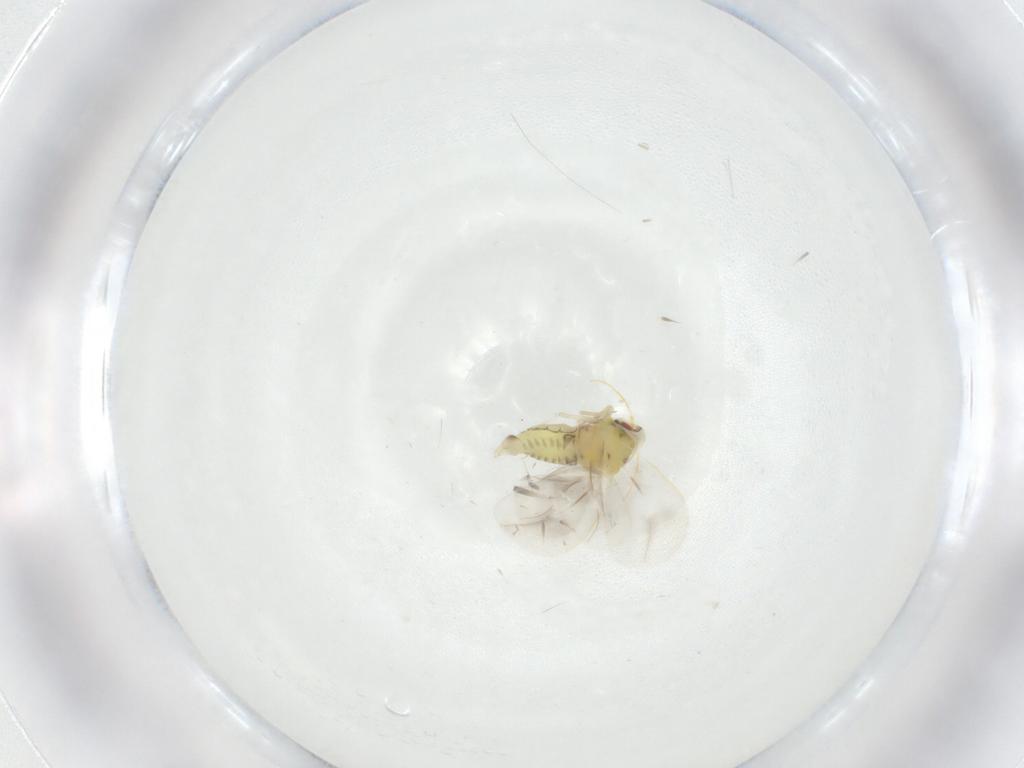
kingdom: Animalia
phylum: Arthropoda
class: Insecta
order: Hemiptera
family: Aleyrodidae
